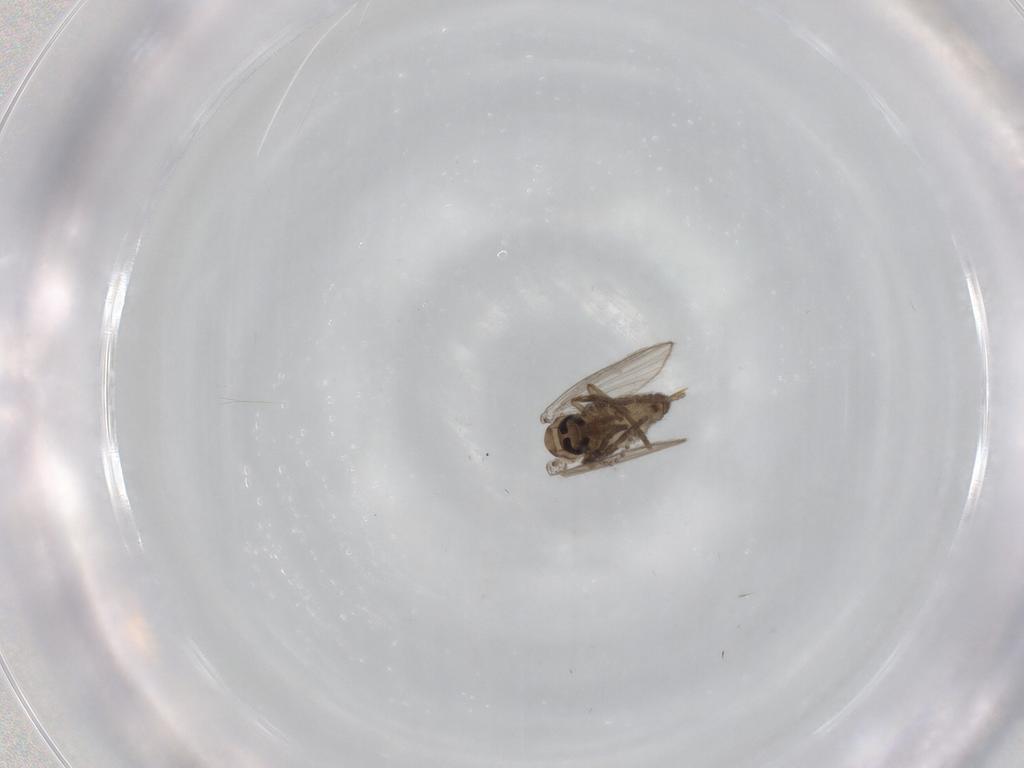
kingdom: Animalia
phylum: Arthropoda
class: Insecta
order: Diptera
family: Psychodidae
